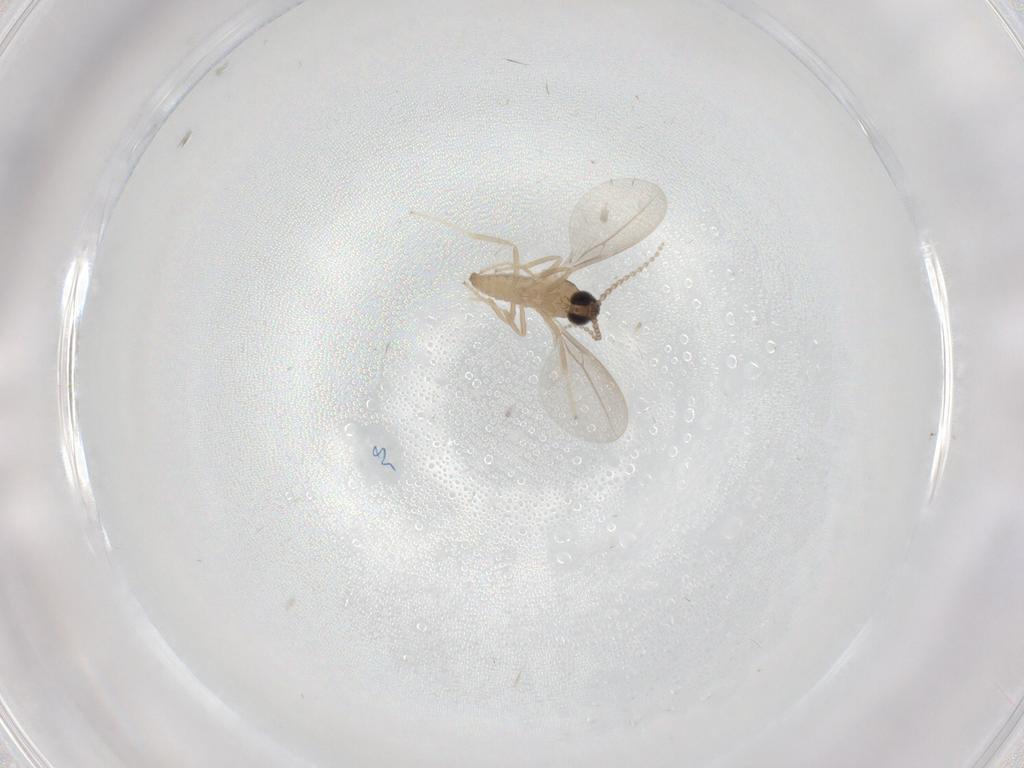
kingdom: Animalia
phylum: Arthropoda
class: Insecta
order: Diptera
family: Cecidomyiidae
